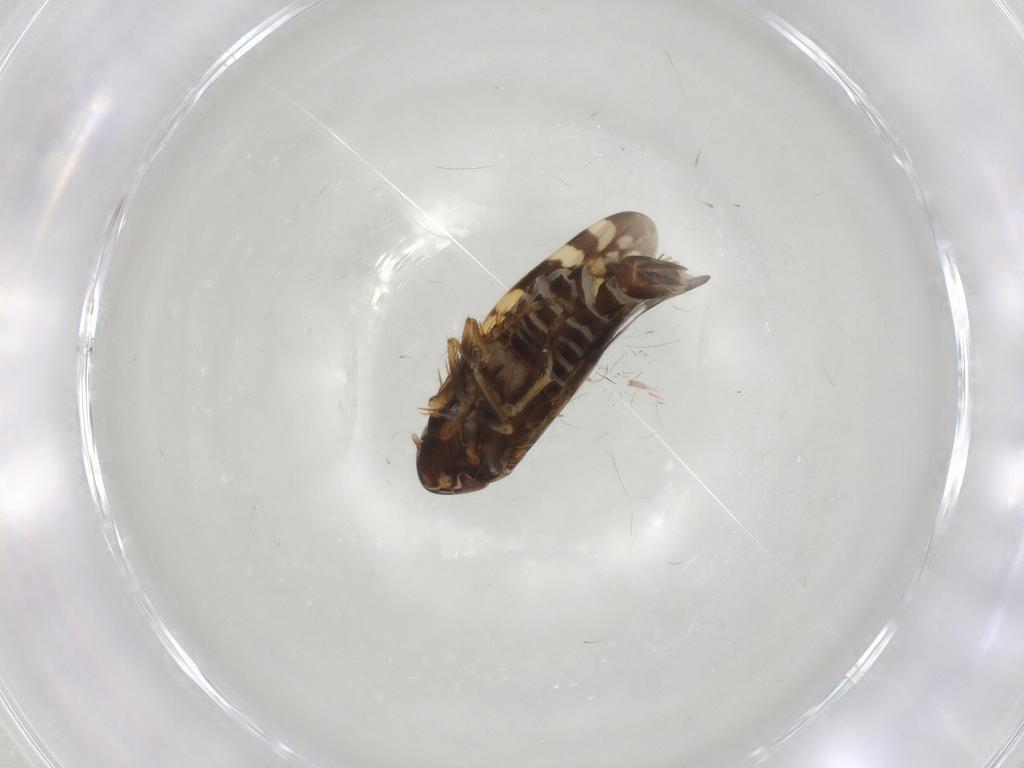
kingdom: Animalia
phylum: Arthropoda
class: Insecta
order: Hemiptera
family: Cicadellidae
